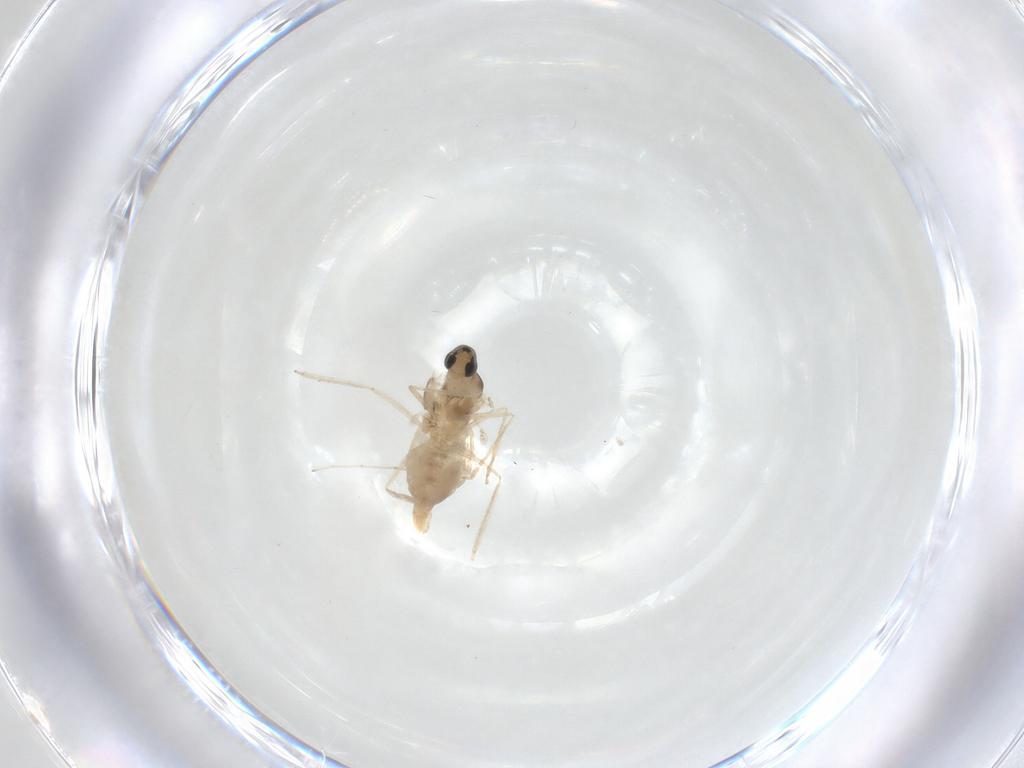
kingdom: Animalia
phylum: Arthropoda
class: Insecta
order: Diptera
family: Cecidomyiidae
